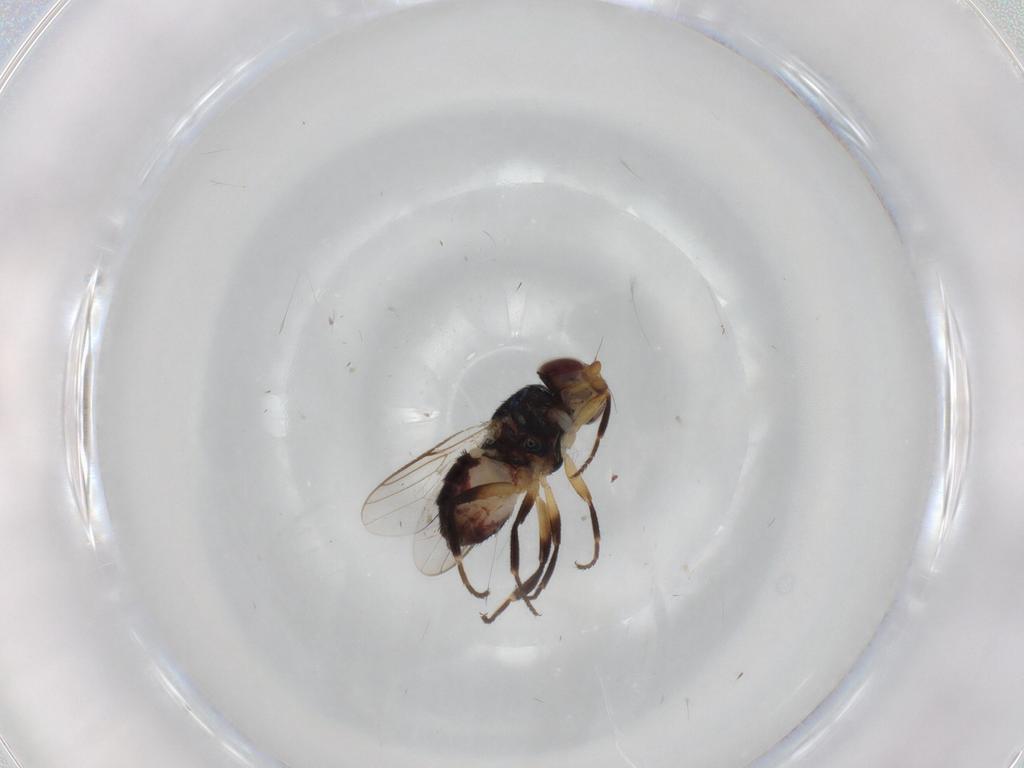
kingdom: Animalia
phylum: Arthropoda
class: Insecta
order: Diptera
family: Chloropidae
